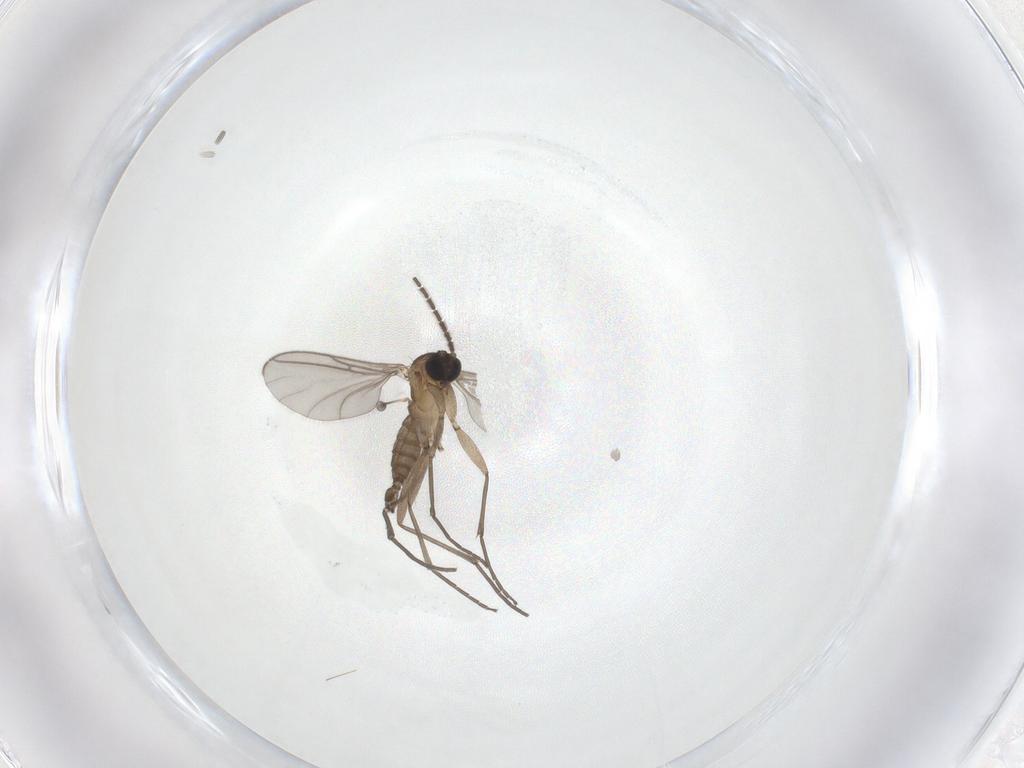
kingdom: Animalia
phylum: Arthropoda
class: Insecta
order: Diptera
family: Sciaridae
